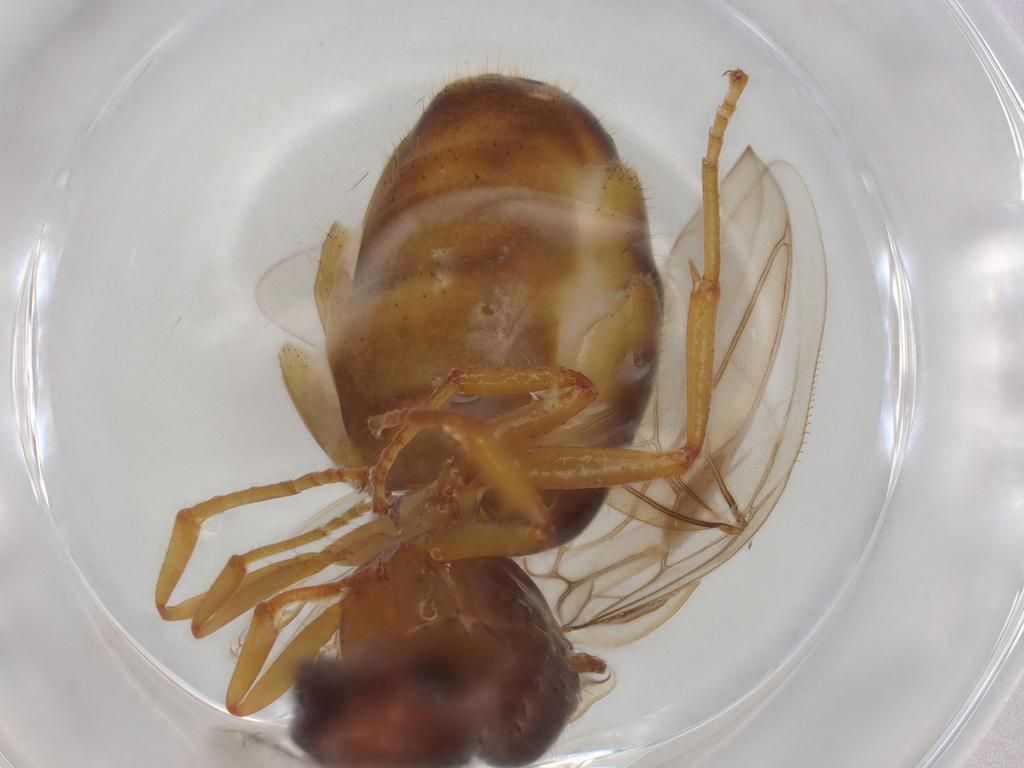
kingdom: Animalia
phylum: Arthropoda
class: Insecta
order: Hymenoptera
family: Formicidae
